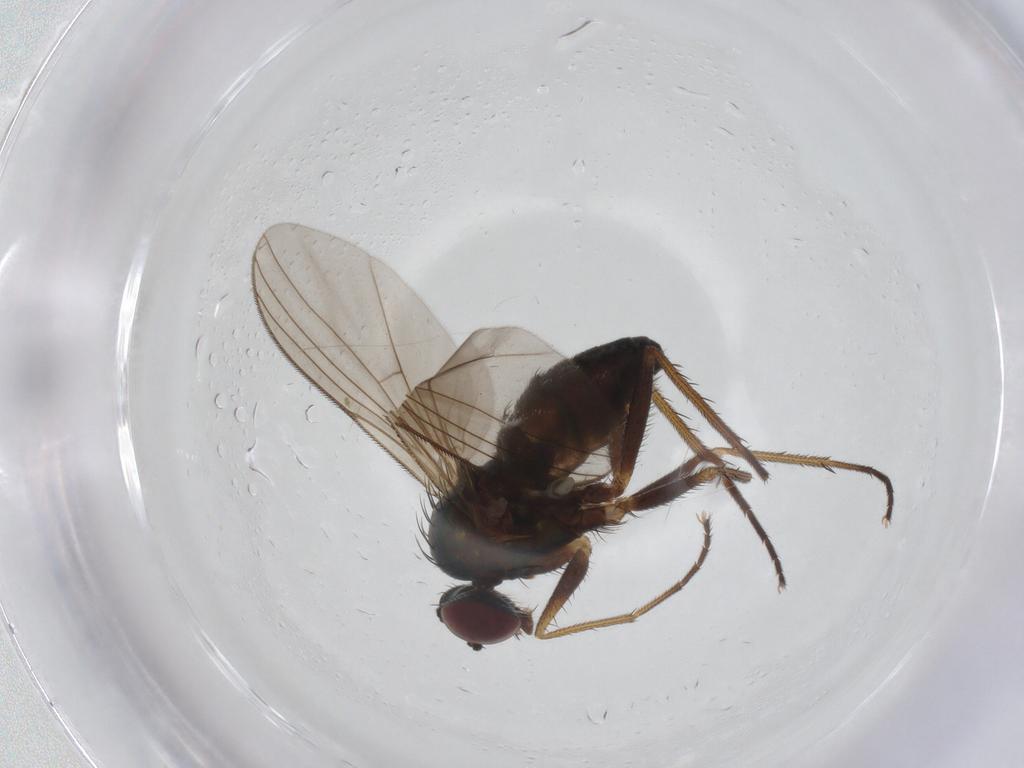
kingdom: Animalia
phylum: Arthropoda
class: Insecta
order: Diptera
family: Dolichopodidae
